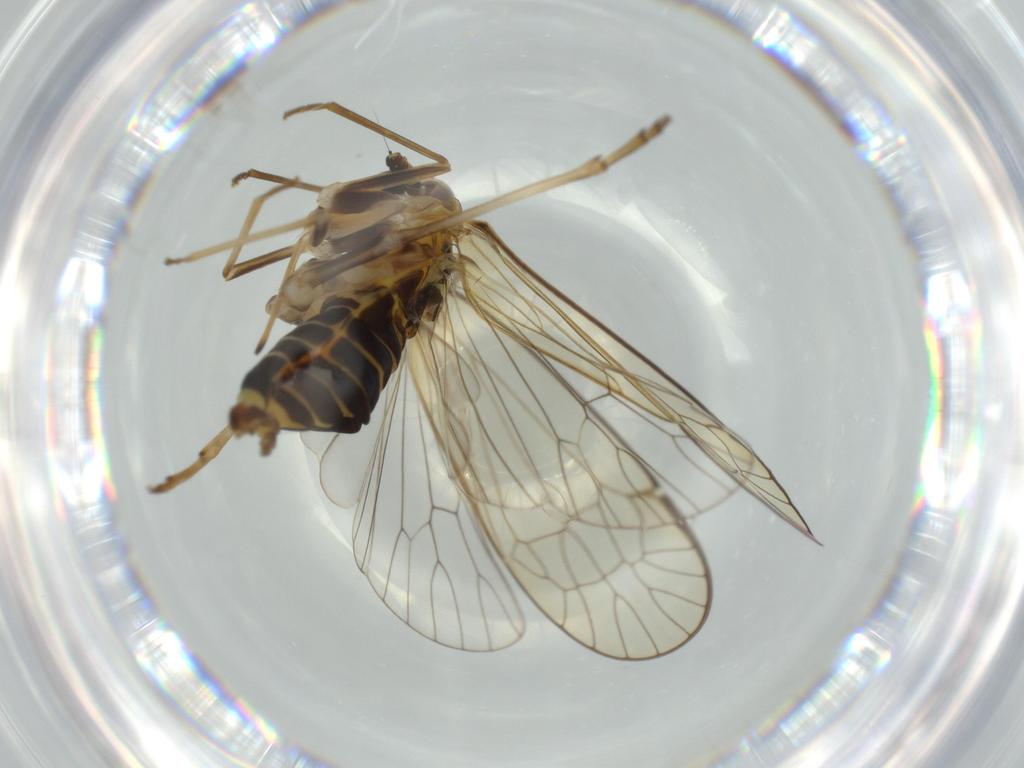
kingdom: Animalia
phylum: Arthropoda
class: Insecta
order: Hemiptera
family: Kinnaridae
